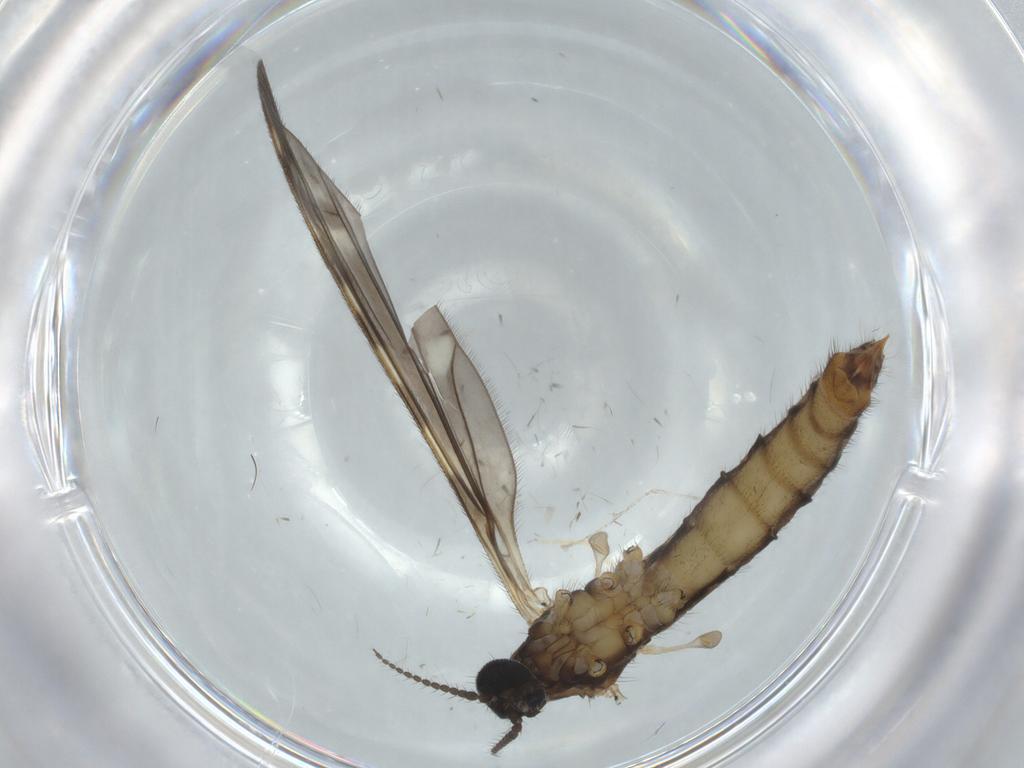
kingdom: Animalia
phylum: Arthropoda
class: Insecta
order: Diptera
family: Limoniidae
